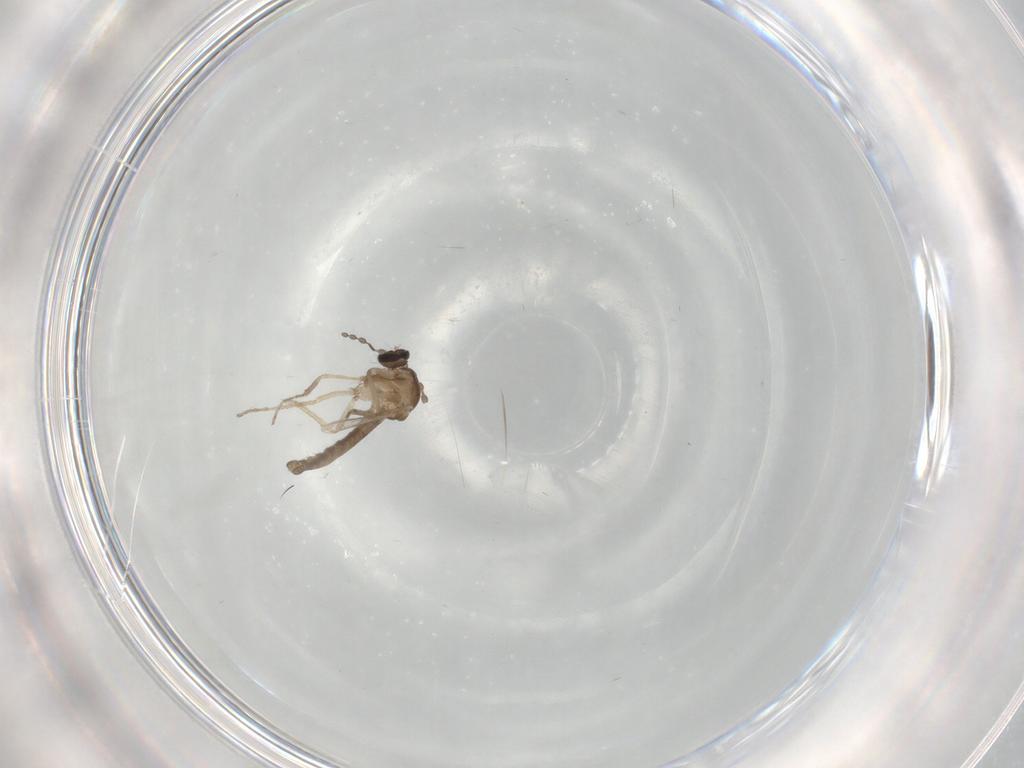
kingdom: Animalia
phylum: Arthropoda
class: Insecta
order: Diptera
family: Ceratopogonidae
